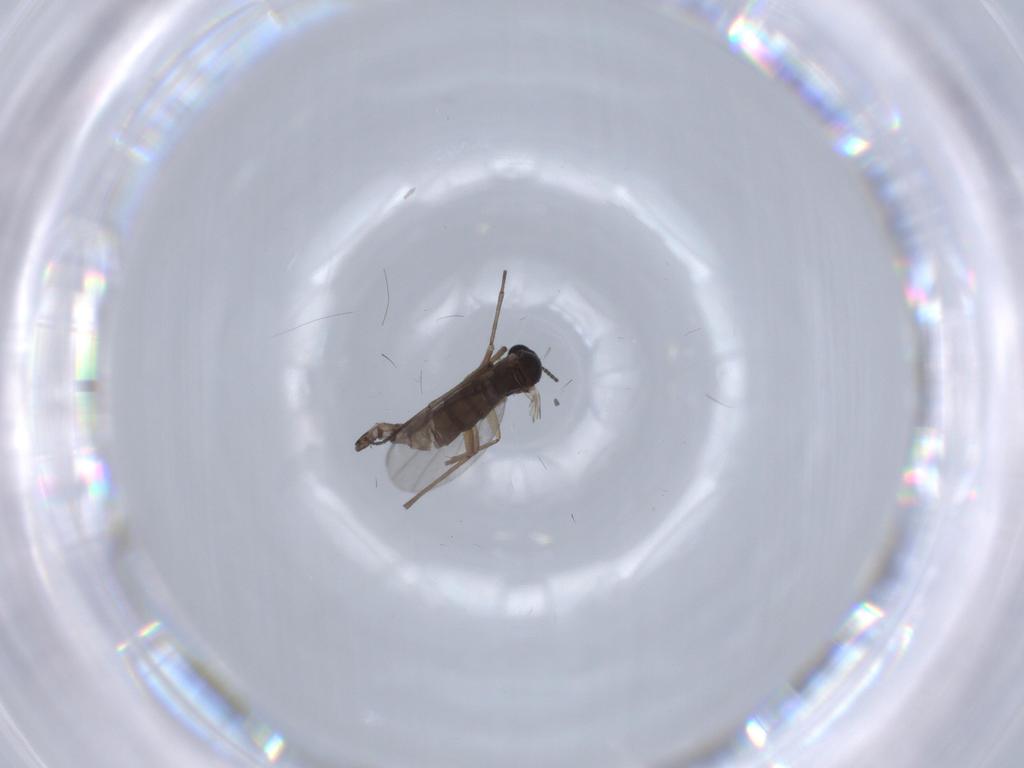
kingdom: Animalia
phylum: Arthropoda
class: Insecta
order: Diptera
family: Sciaridae
